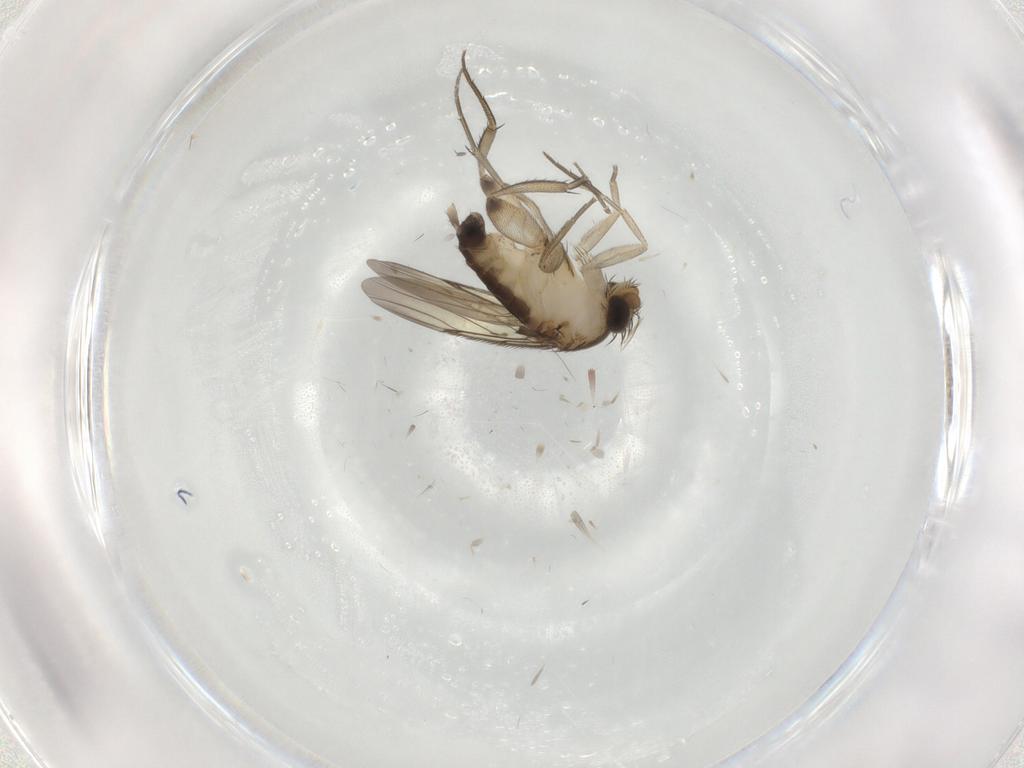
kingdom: Animalia
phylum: Arthropoda
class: Insecta
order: Diptera
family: Phoridae
